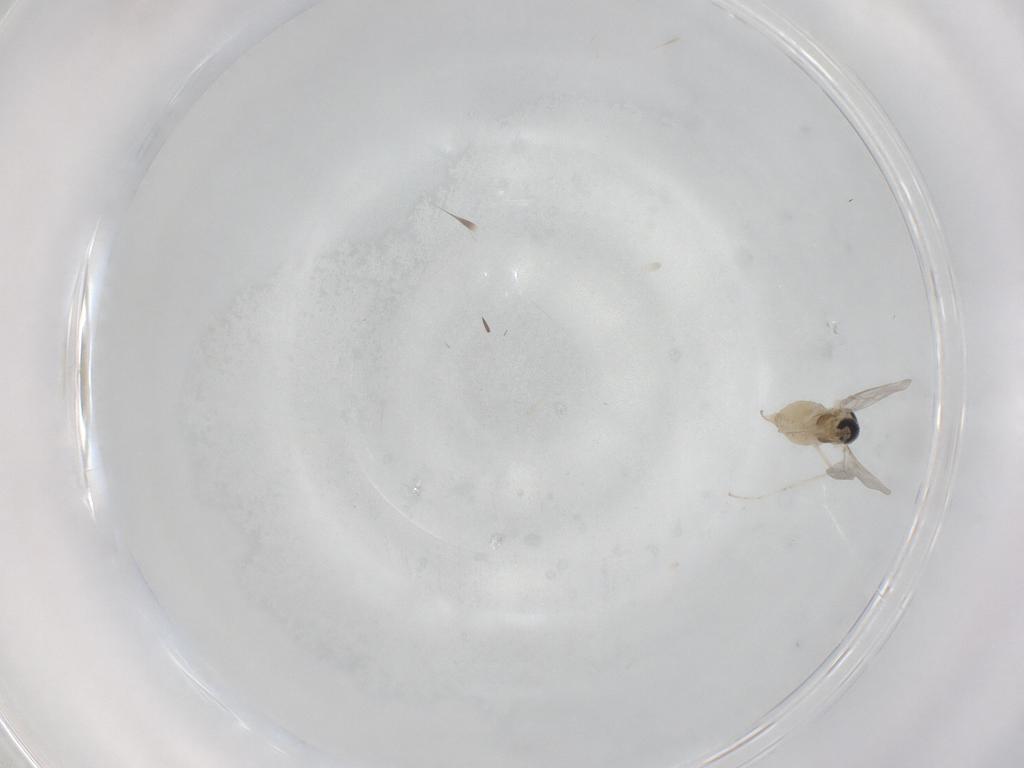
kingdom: Animalia
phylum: Arthropoda
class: Insecta
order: Diptera
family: Cecidomyiidae
